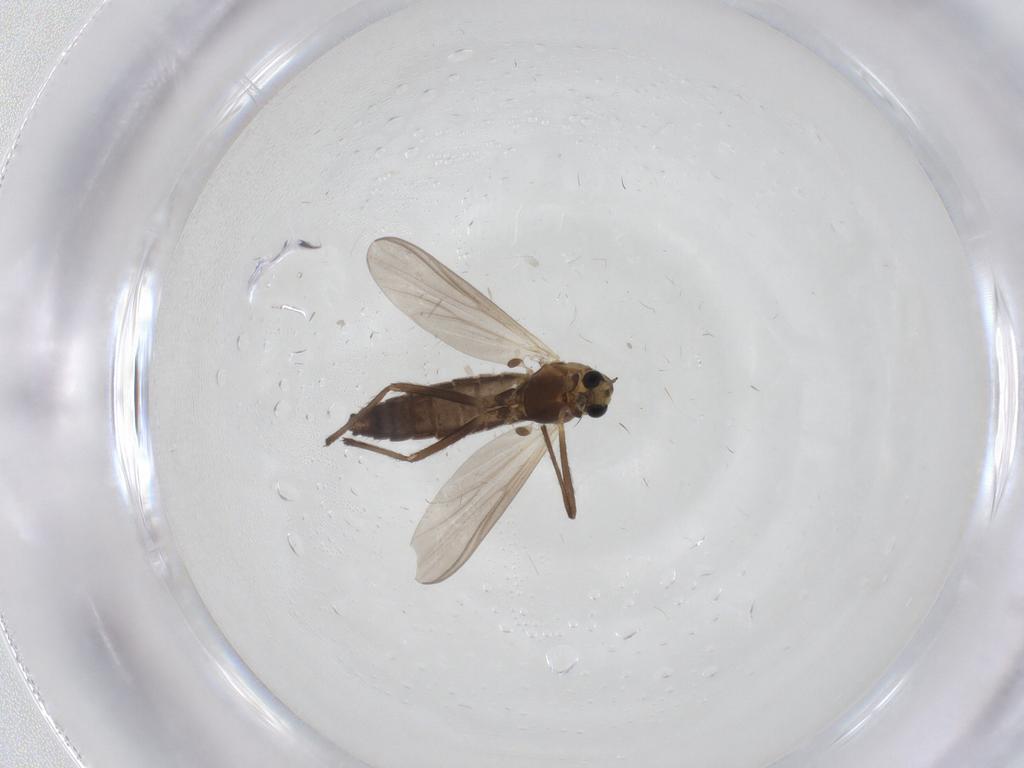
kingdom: Animalia
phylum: Arthropoda
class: Insecta
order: Diptera
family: Chironomidae
